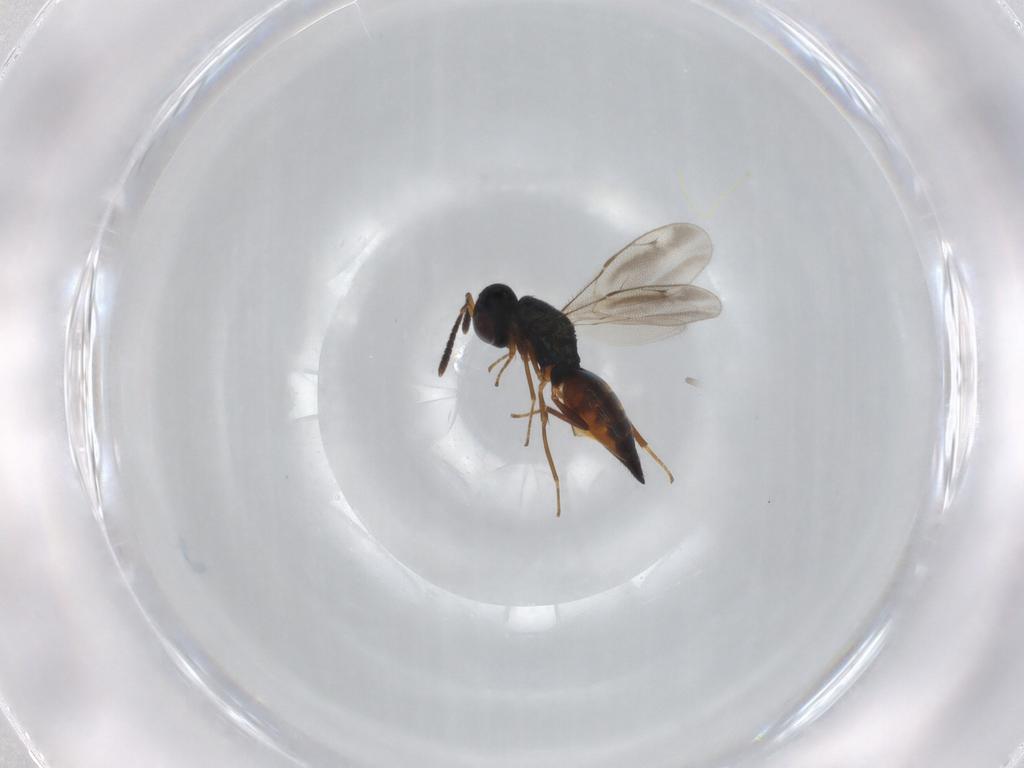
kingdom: Animalia
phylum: Arthropoda
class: Insecta
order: Hymenoptera
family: Pteromalidae
